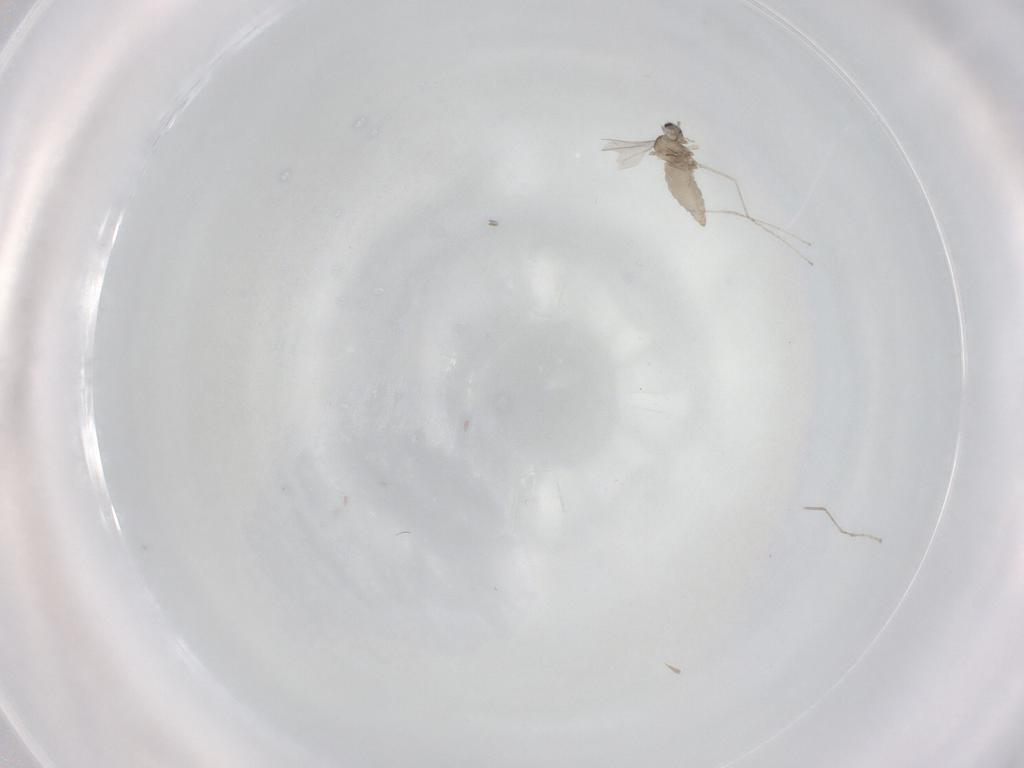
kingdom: Animalia
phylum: Arthropoda
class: Insecta
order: Diptera
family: Cecidomyiidae
